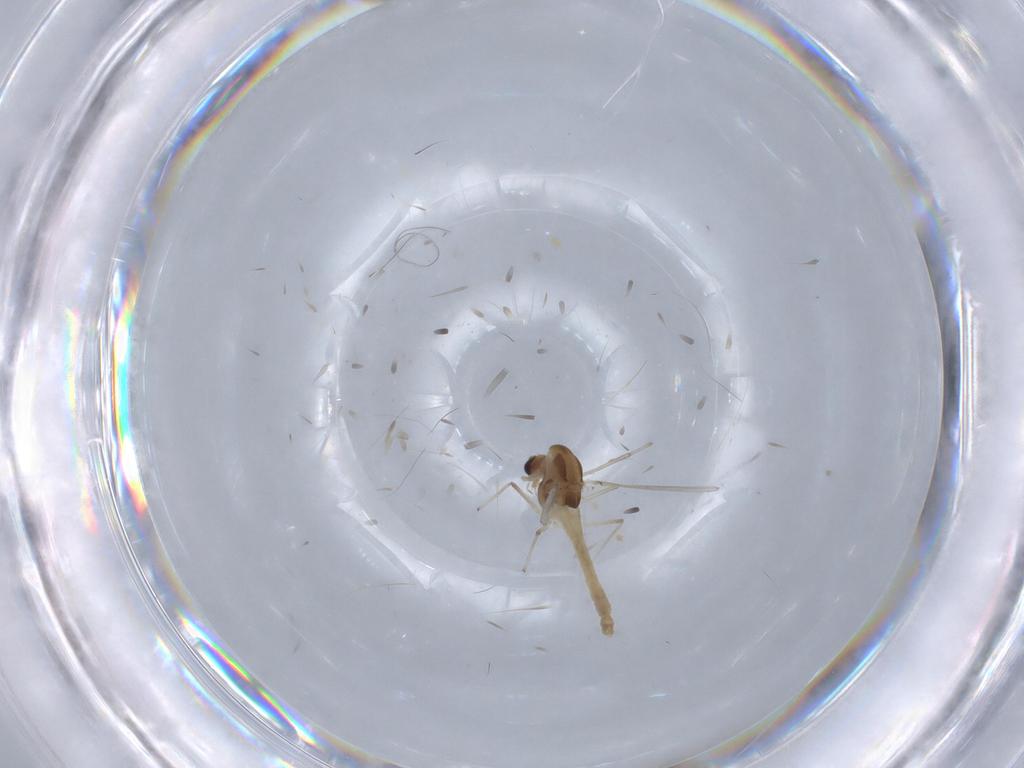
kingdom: Animalia
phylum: Arthropoda
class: Insecta
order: Diptera
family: Chironomidae
